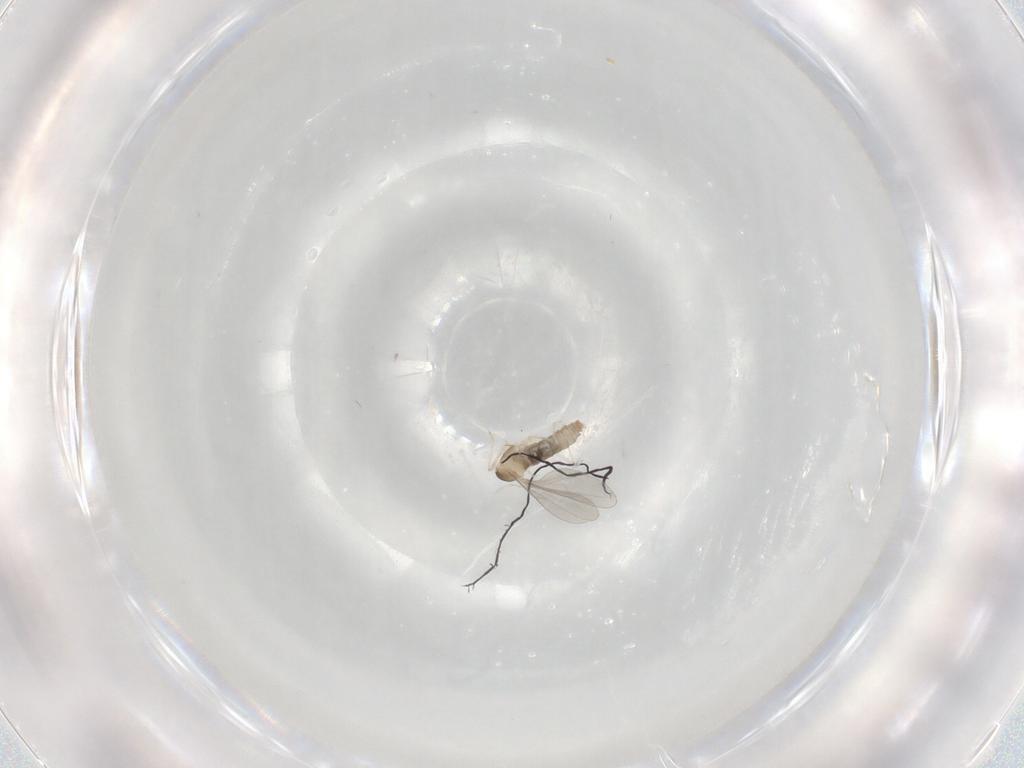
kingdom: Animalia
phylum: Arthropoda
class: Insecta
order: Diptera
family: Cecidomyiidae
